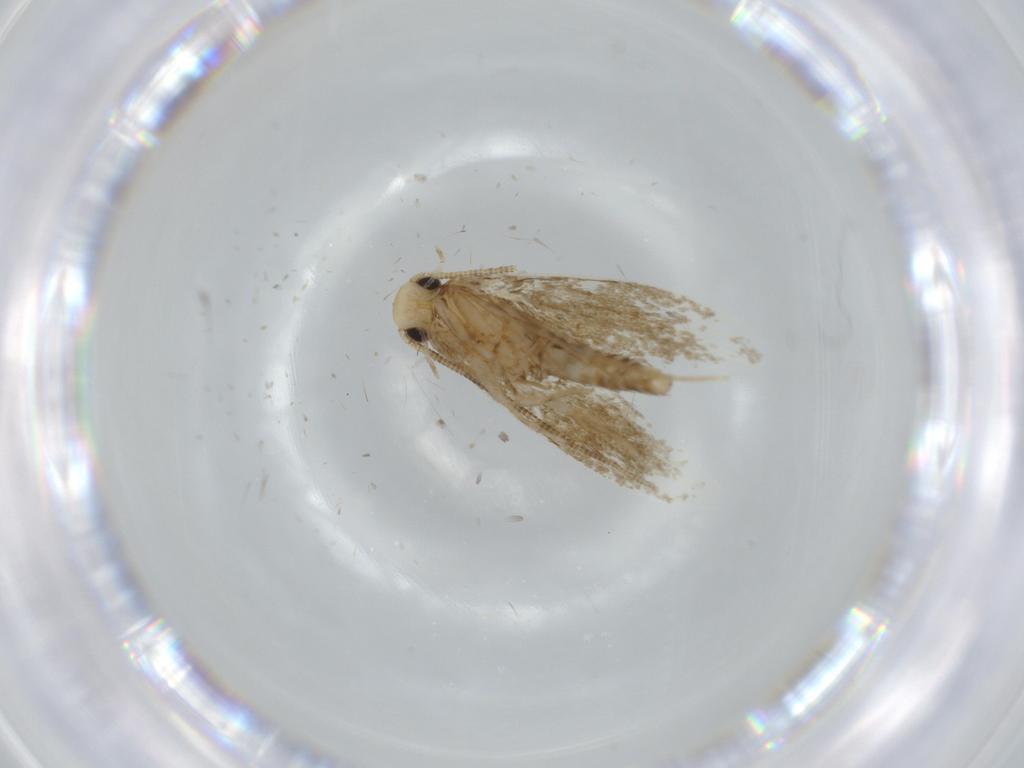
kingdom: Animalia
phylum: Arthropoda
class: Insecta
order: Lepidoptera
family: Tineidae
